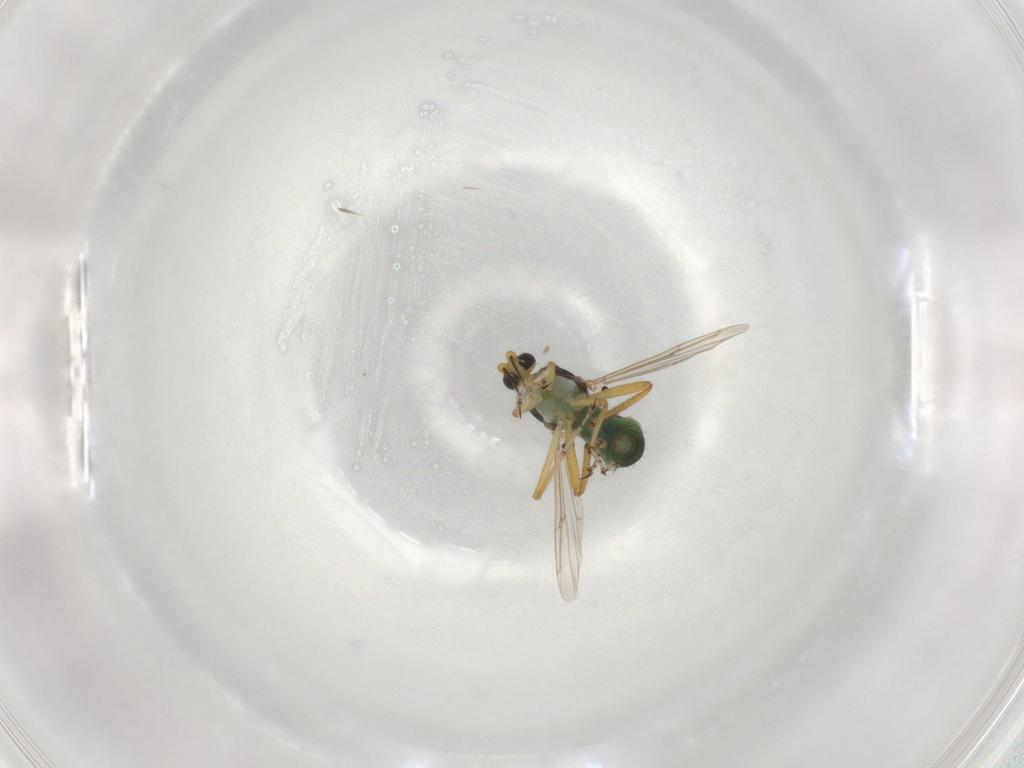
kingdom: Animalia
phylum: Arthropoda
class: Insecta
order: Diptera
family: Ceratopogonidae
